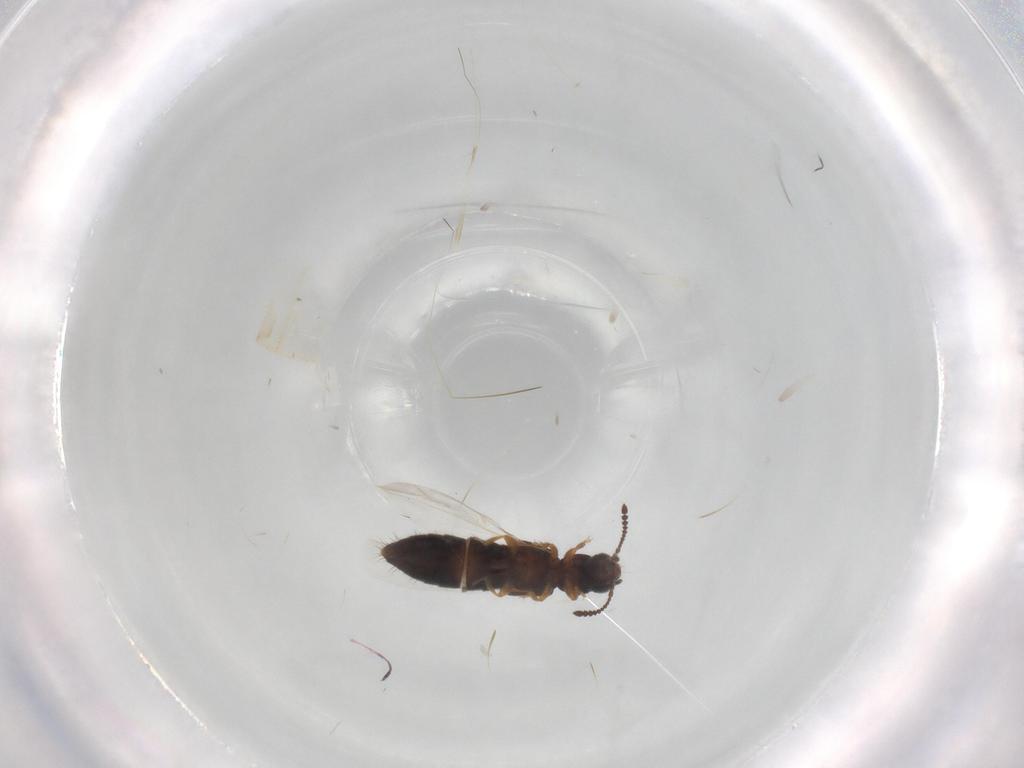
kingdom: Animalia
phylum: Arthropoda
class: Insecta
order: Coleoptera
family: Staphylinidae
